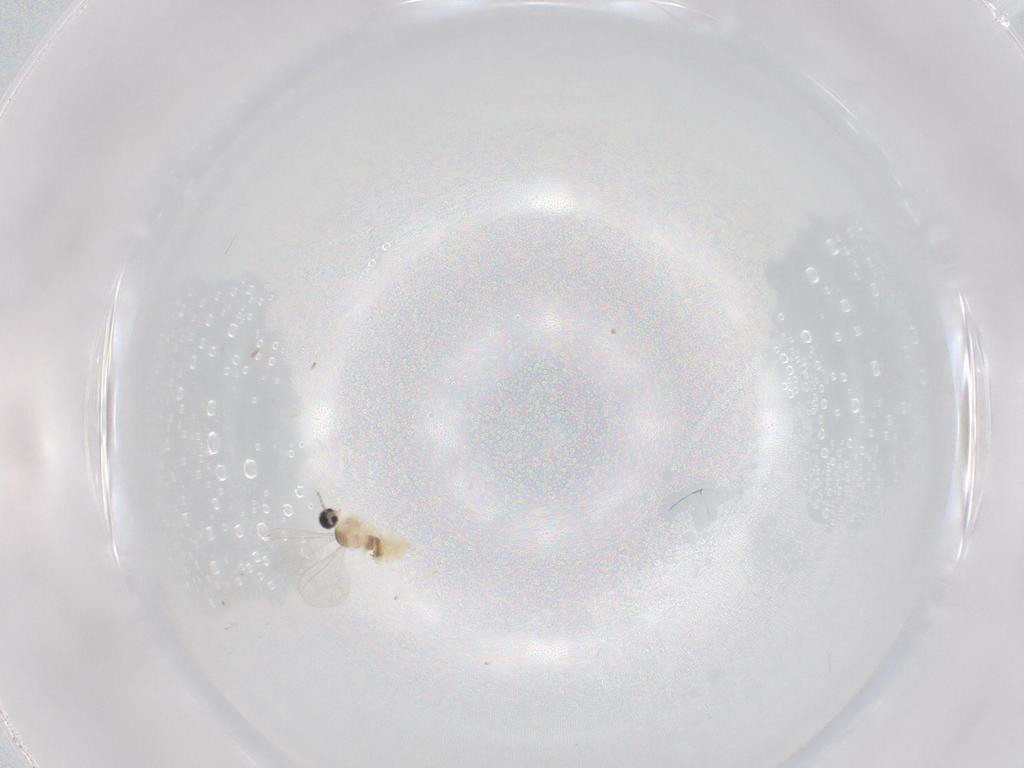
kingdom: Animalia
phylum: Arthropoda
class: Insecta
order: Diptera
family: Cecidomyiidae
